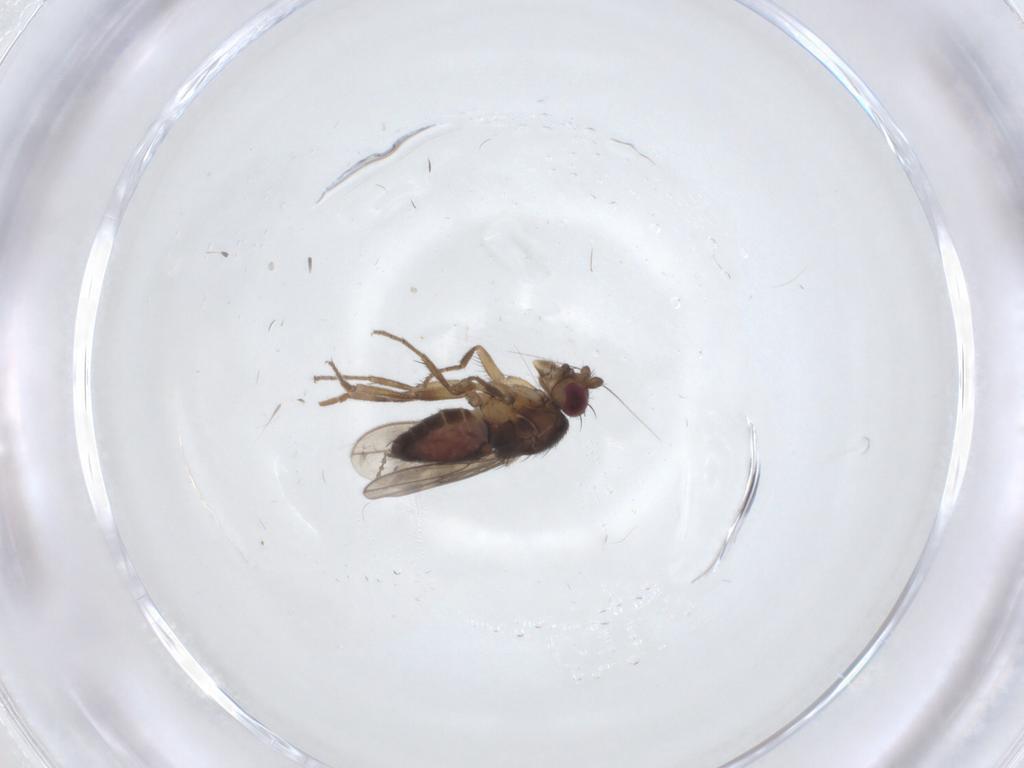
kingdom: Animalia
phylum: Arthropoda
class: Insecta
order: Diptera
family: Sphaeroceridae
